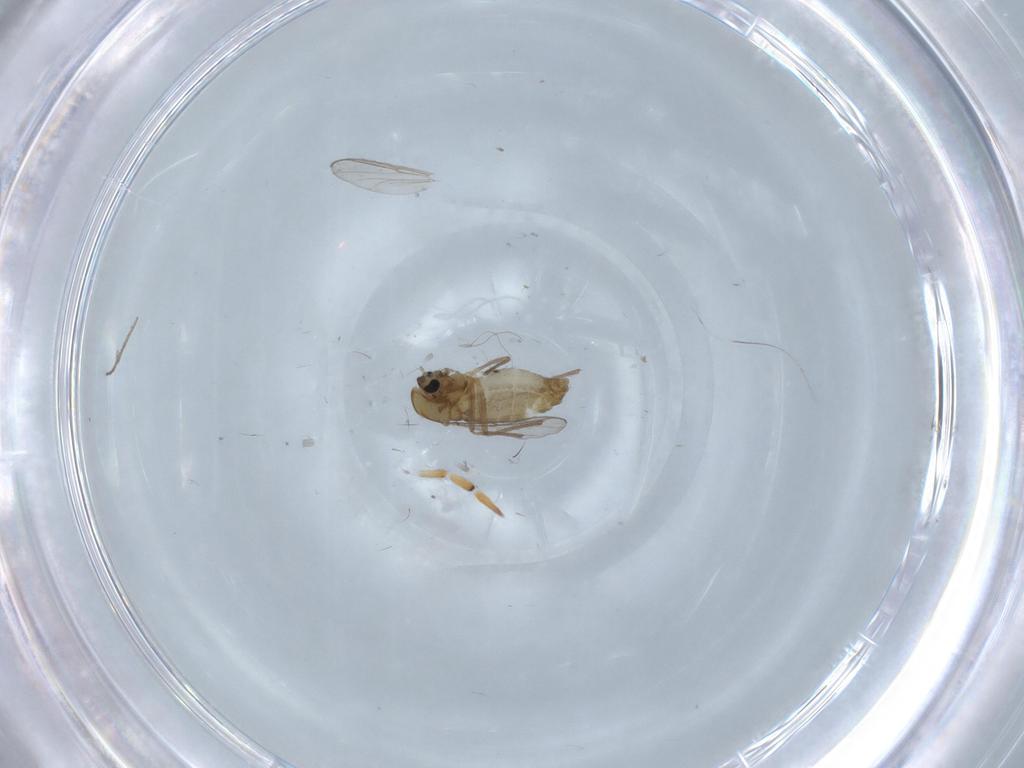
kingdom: Animalia
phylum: Arthropoda
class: Insecta
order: Diptera
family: Chironomidae
